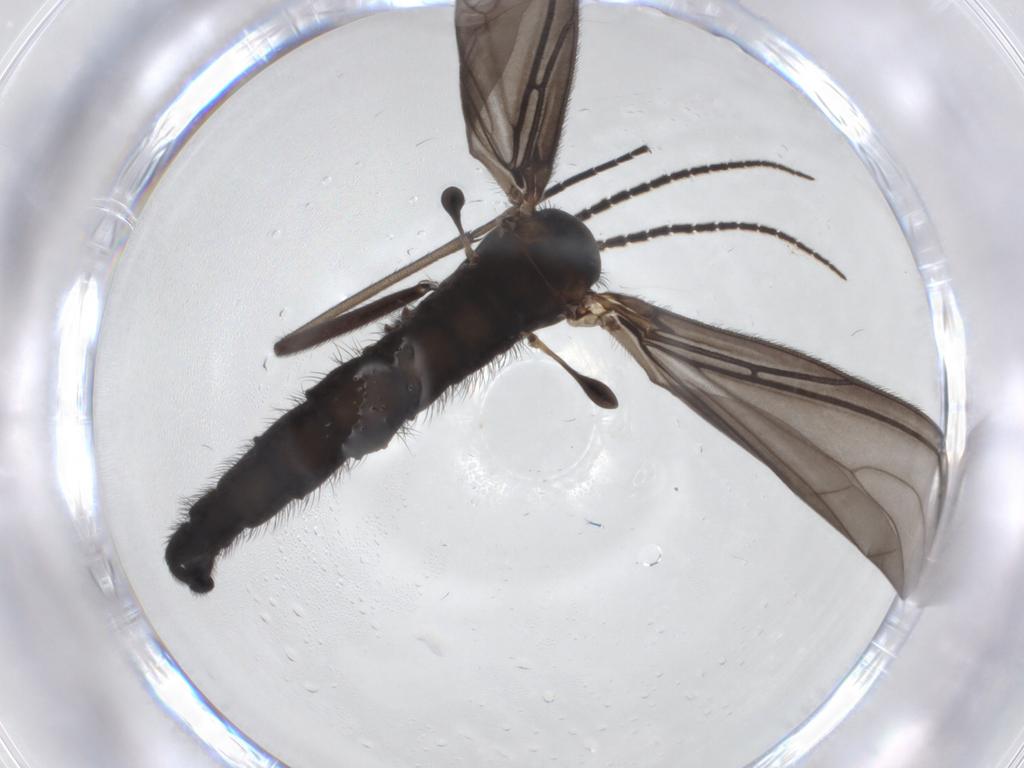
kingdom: Animalia
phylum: Arthropoda
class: Insecta
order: Diptera
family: Sciaridae
